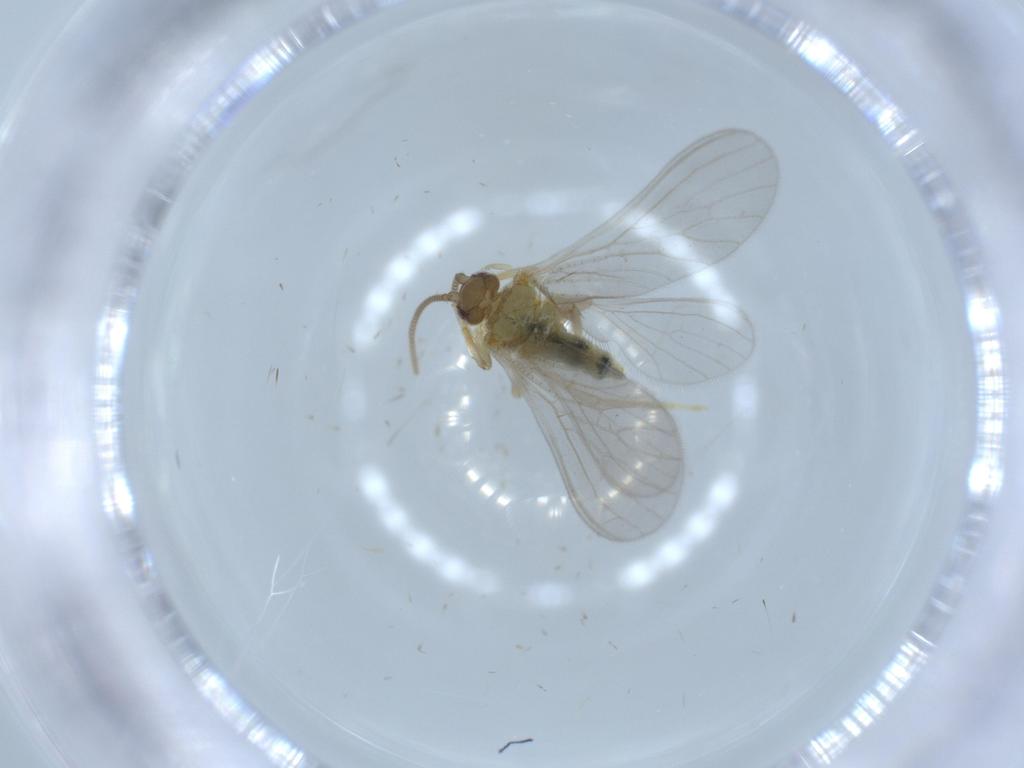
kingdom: Animalia
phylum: Arthropoda
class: Insecta
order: Neuroptera
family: Coniopterygidae
